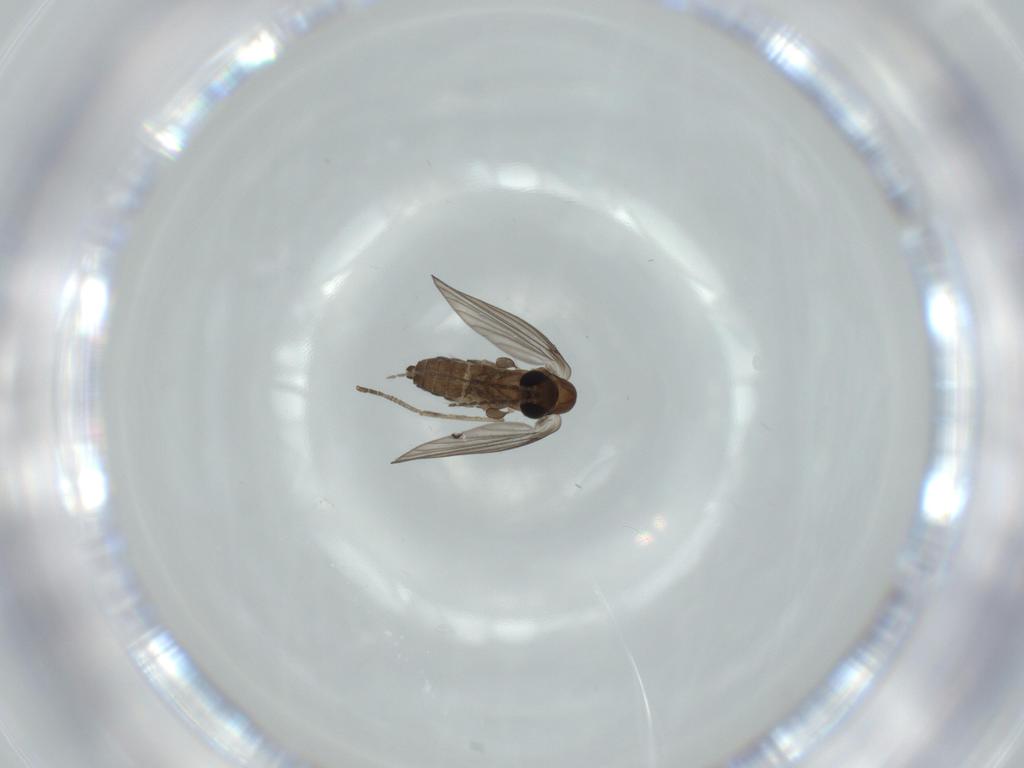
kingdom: Animalia
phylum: Arthropoda
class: Insecta
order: Diptera
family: Psychodidae
